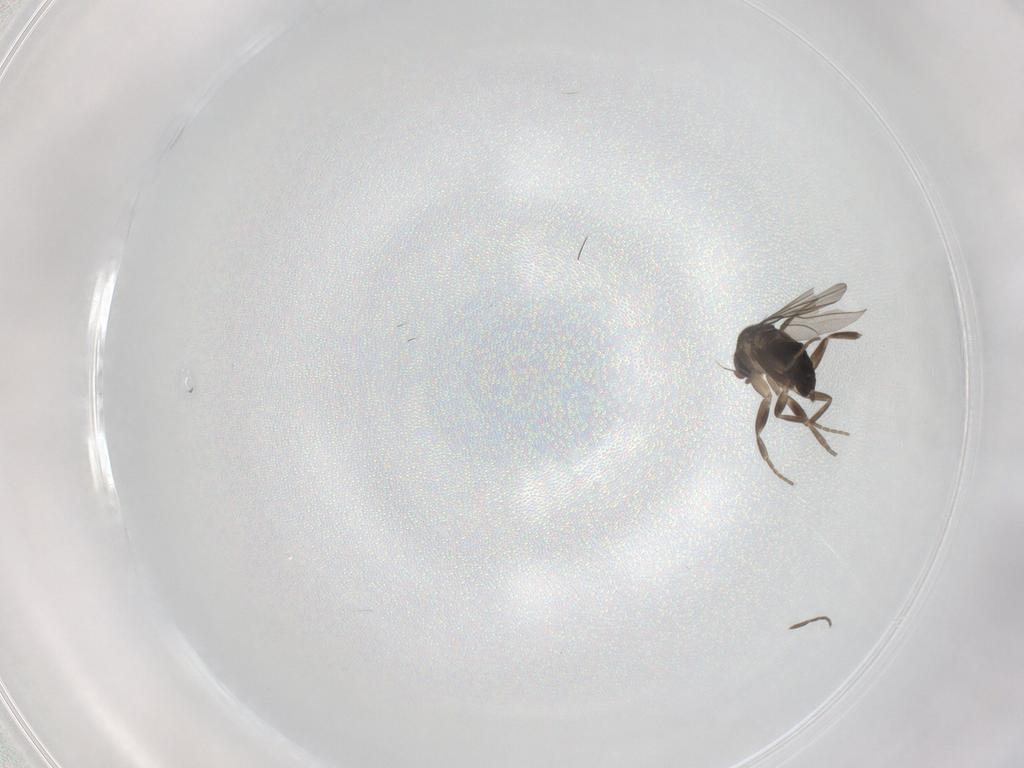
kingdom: Animalia
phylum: Arthropoda
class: Insecta
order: Diptera
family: Phoridae
